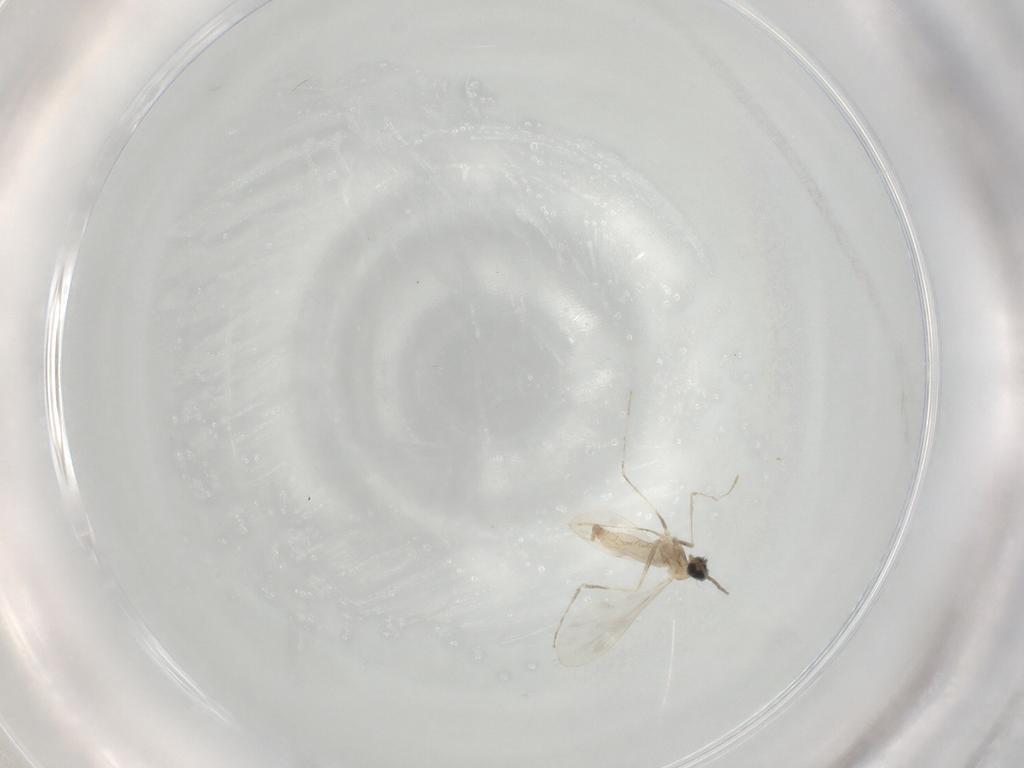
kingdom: Animalia
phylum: Arthropoda
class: Insecta
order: Diptera
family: Cecidomyiidae
